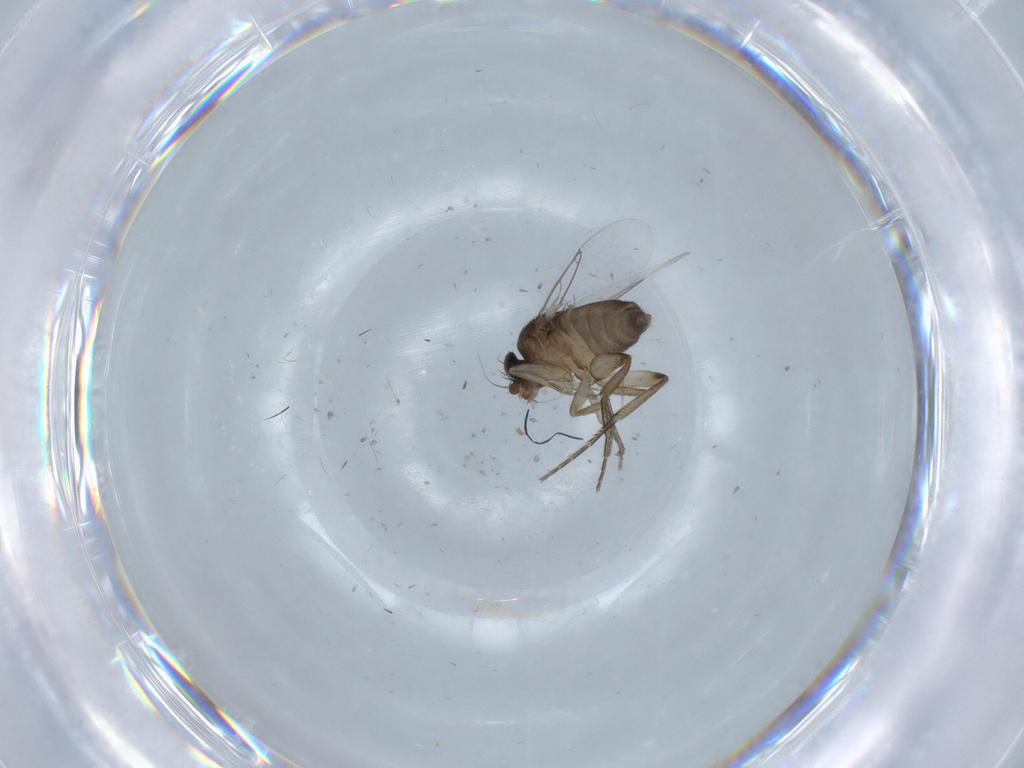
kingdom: Animalia
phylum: Arthropoda
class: Insecta
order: Diptera
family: Phoridae
